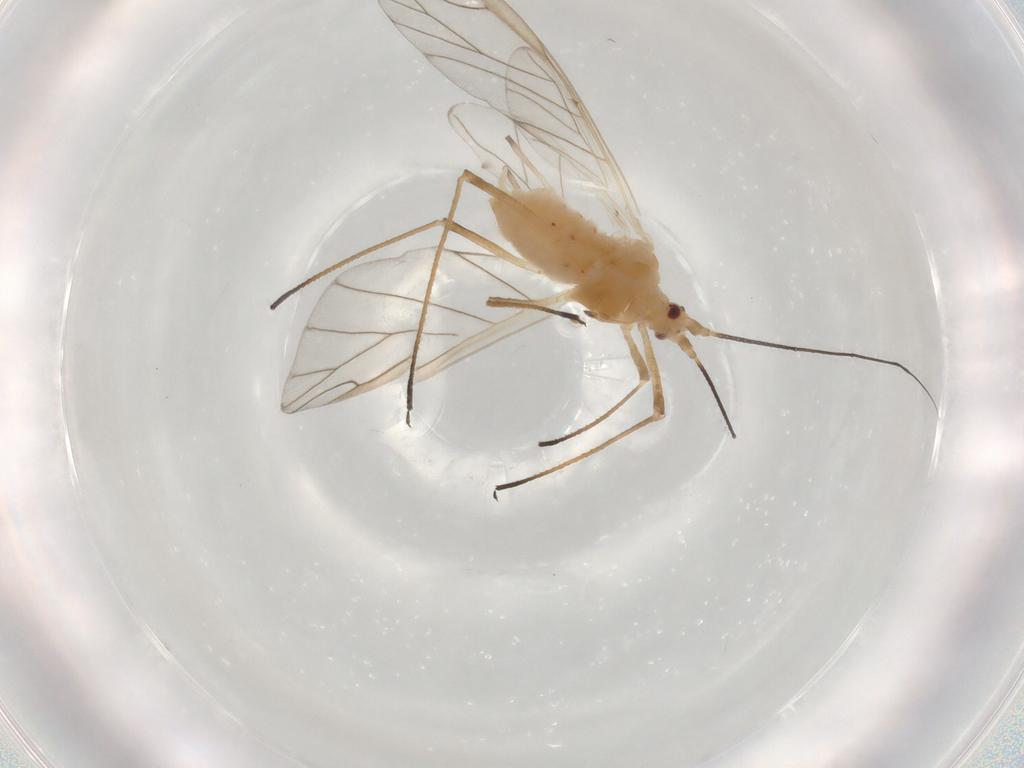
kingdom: Animalia
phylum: Arthropoda
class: Insecta
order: Hemiptera
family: Aphididae
